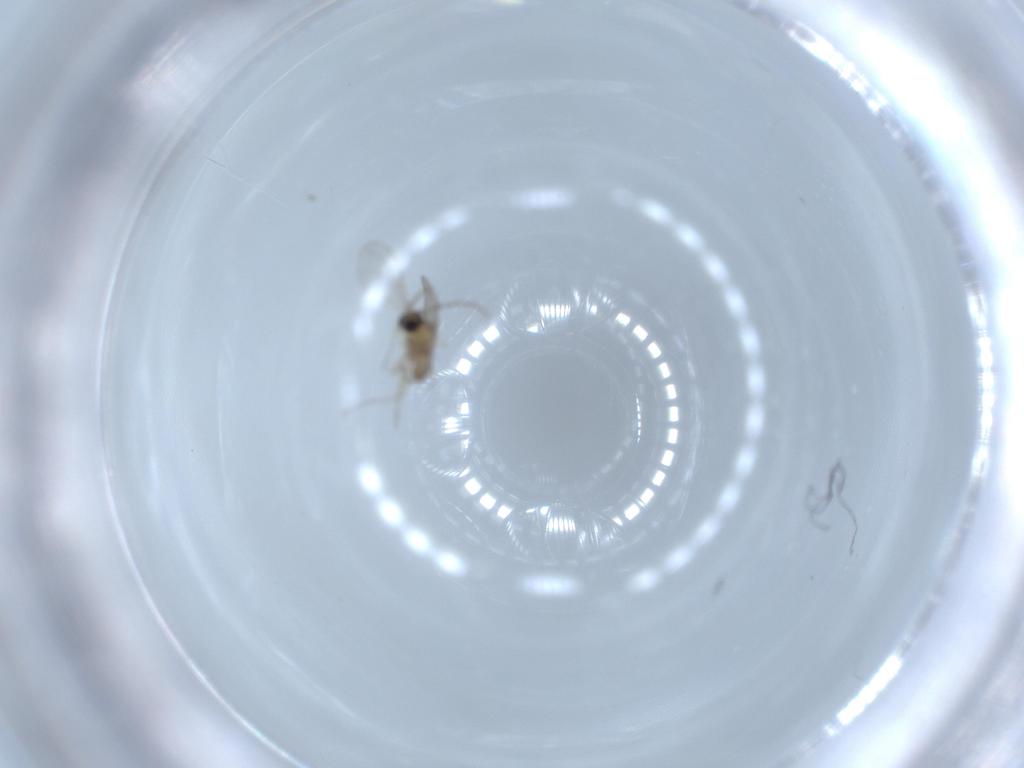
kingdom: Animalia
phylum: Arthropoda
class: Insecta
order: Diptera
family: Cecidomyiidae
